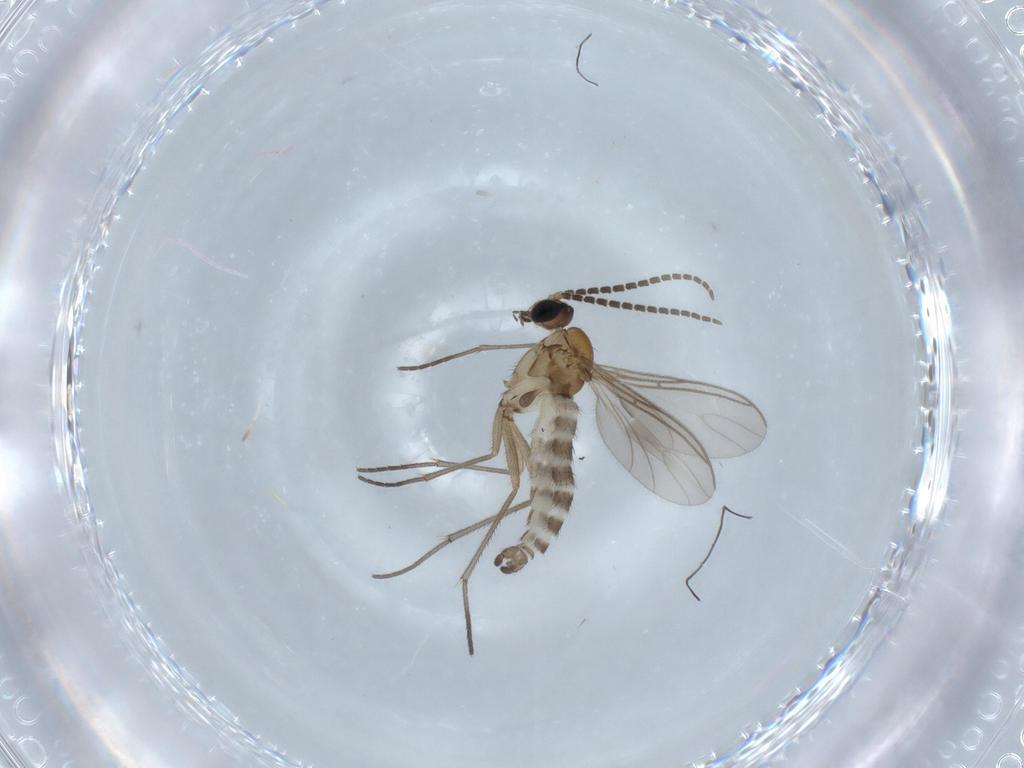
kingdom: Animalia
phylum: Arthropoda
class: Insecta
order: Diptera
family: Sciaridae
